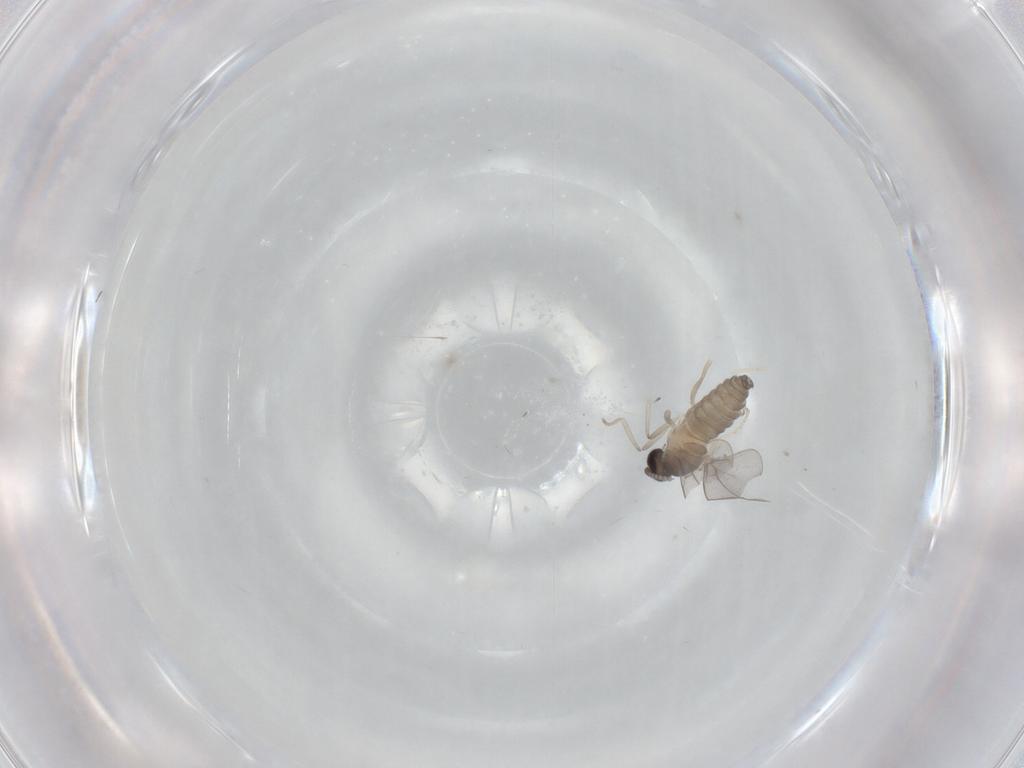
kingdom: Animalia
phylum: Arthropoda
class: Insecta
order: Diptera
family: Cecidomyiidae
